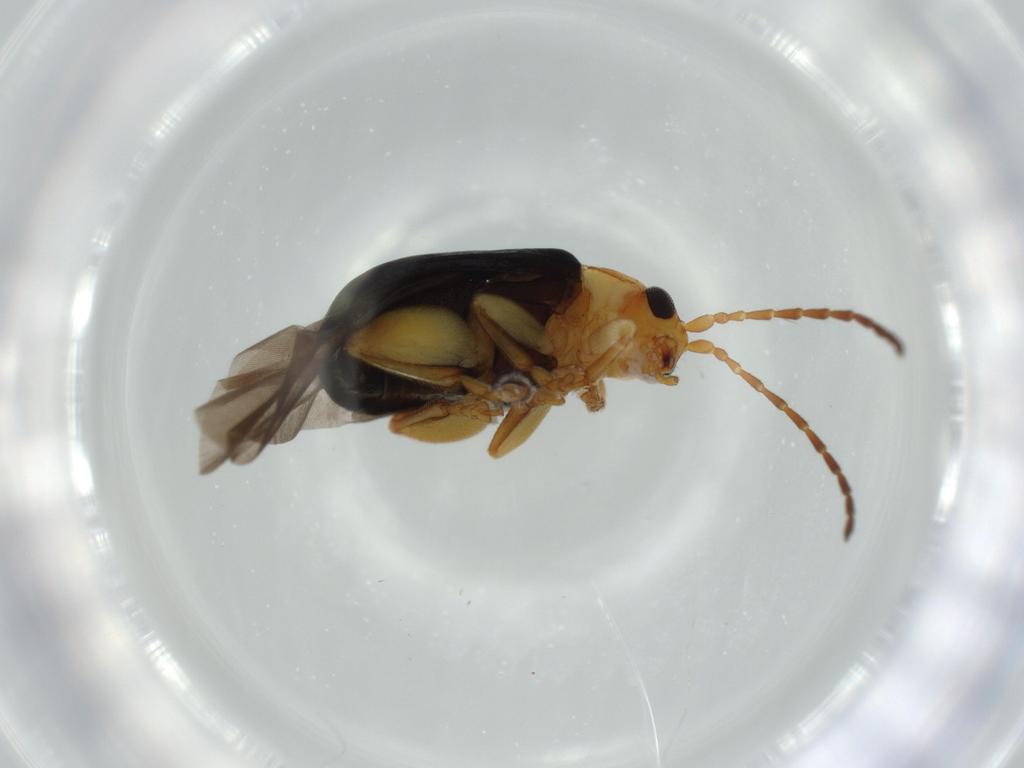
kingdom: Animalia
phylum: Arthropoda
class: Insecta
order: Coleoptera
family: Chrysomelidae
